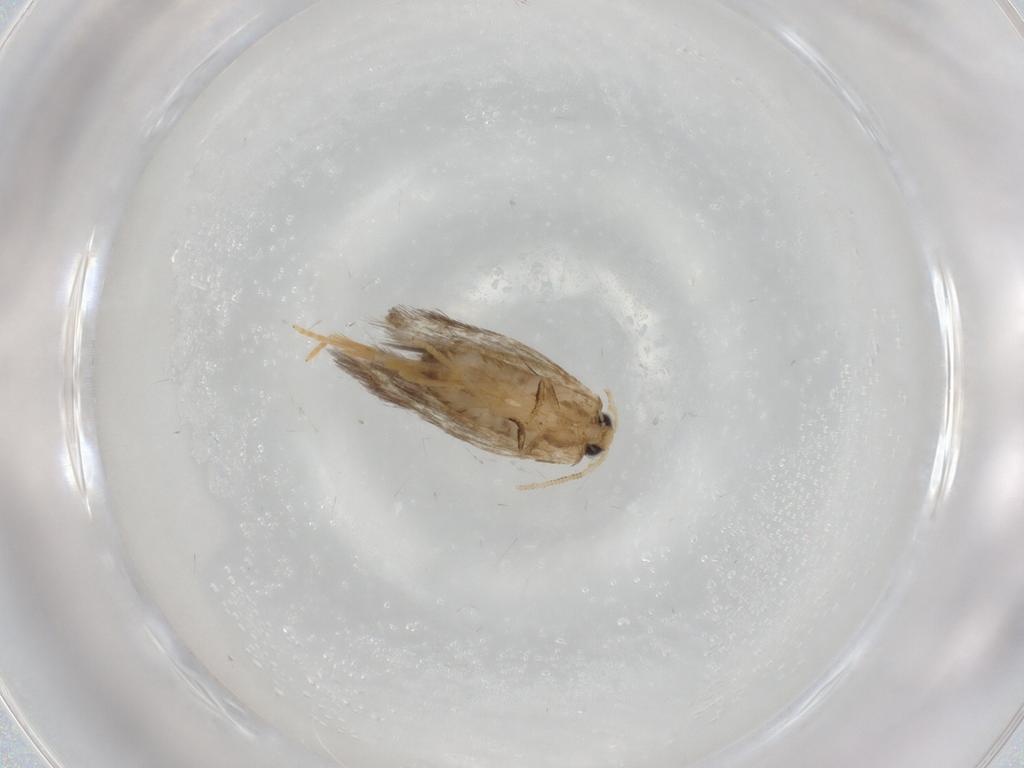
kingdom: Animalia
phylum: Arthropoda
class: Insecta
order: Lepidoptera
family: Nepticulidae
